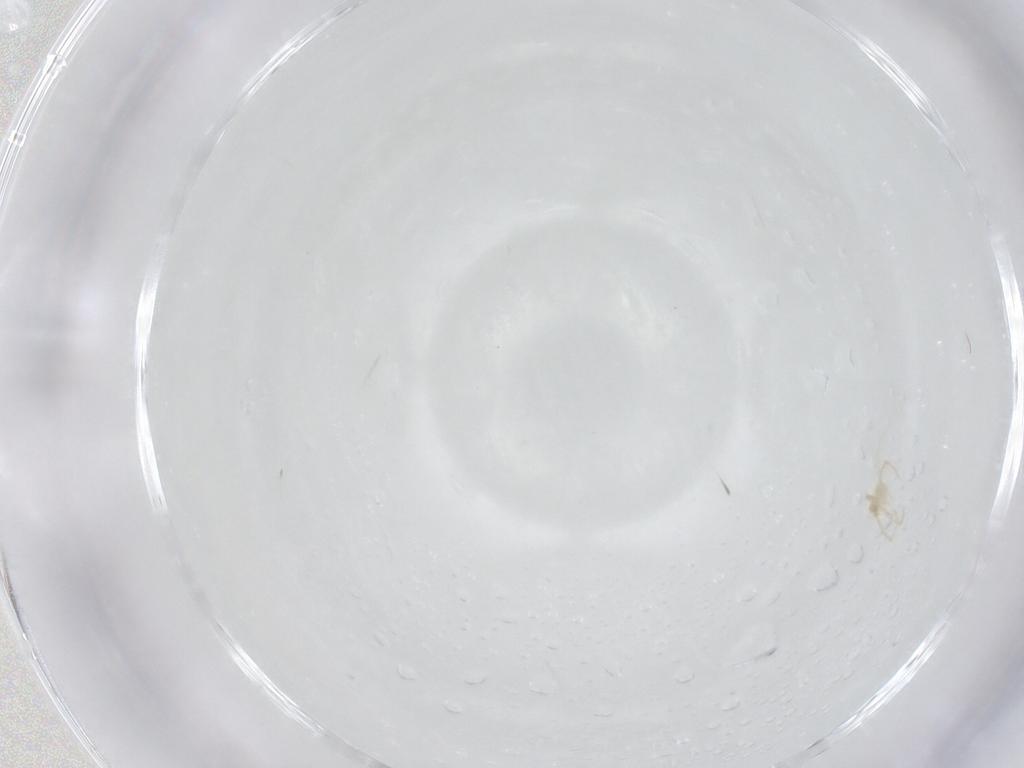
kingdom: Animalia
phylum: Arthropoda
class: Arachnida
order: Trombidiformes
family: Erythraeidae
